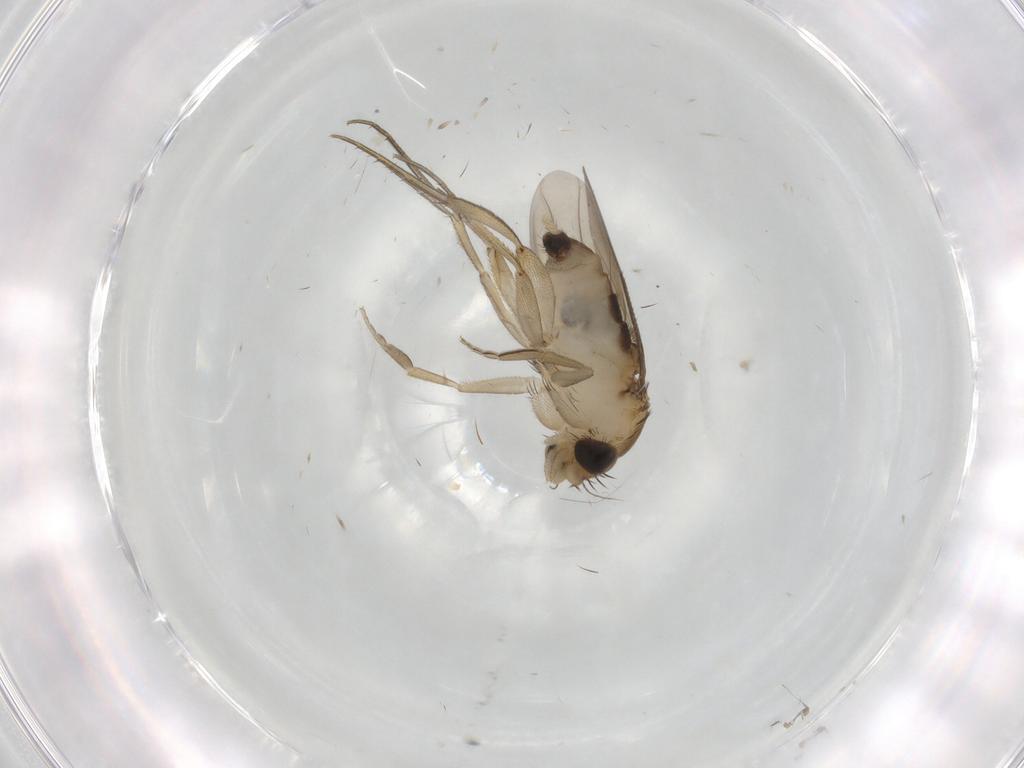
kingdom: Animalia
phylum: Arthropoda
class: Insecta
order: Diptera
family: Phoridae
